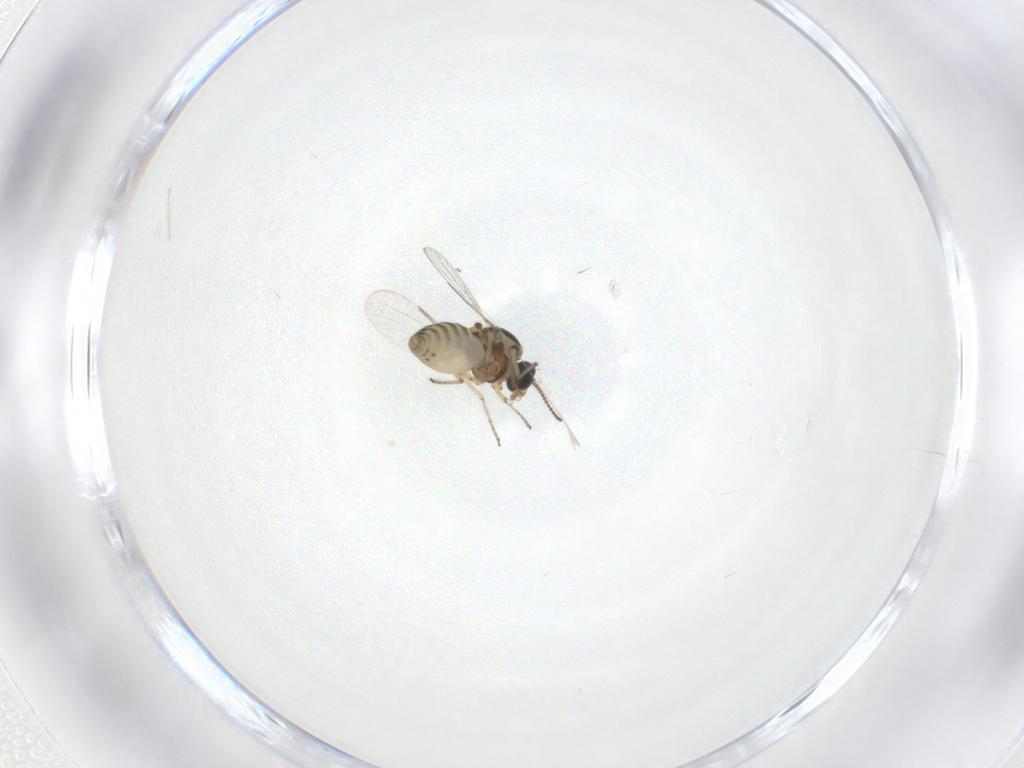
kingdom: Animalia
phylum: Arthropoda
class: Insecta
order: Diptera
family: Ceratopogonidae
